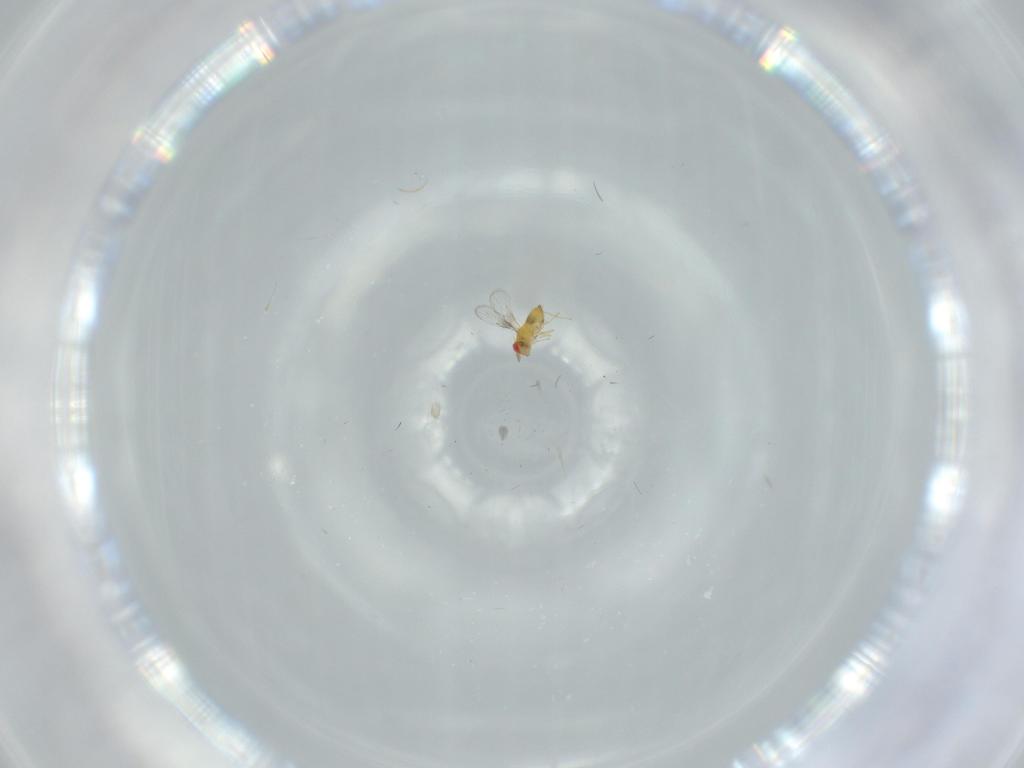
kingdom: Animalia
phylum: Arthropoda
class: Insecta
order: Hymenoptera
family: Trichogrammatidae
